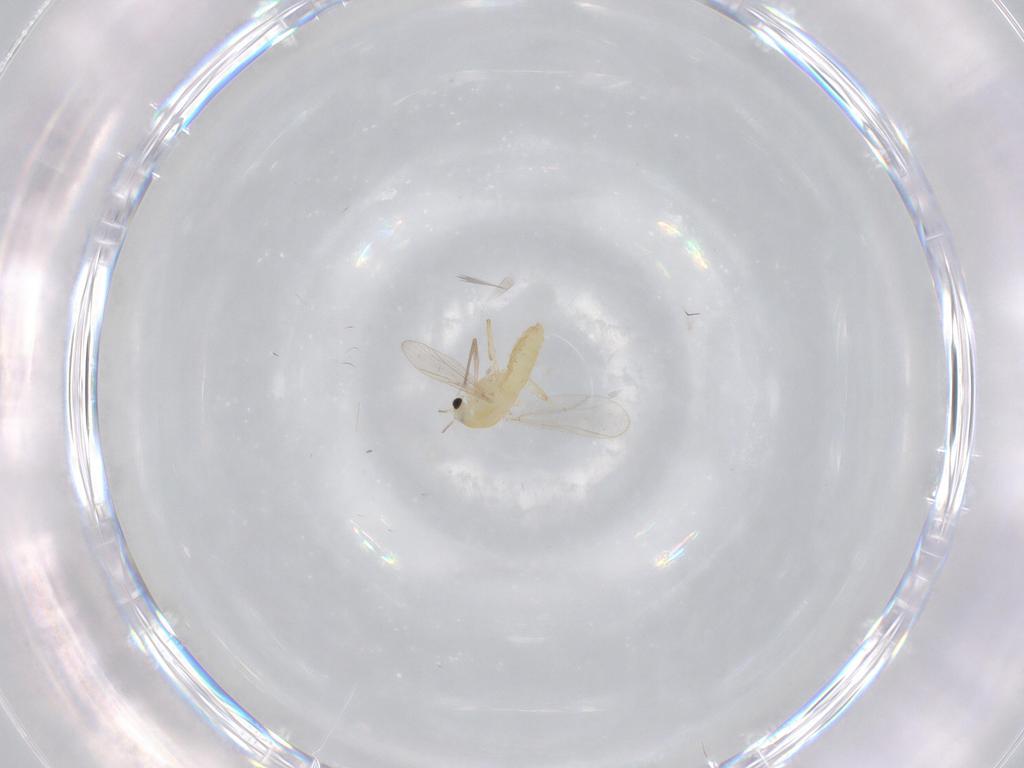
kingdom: Animalia
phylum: Arthropoda
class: Insecta
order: Diptera
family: Chironomidae
